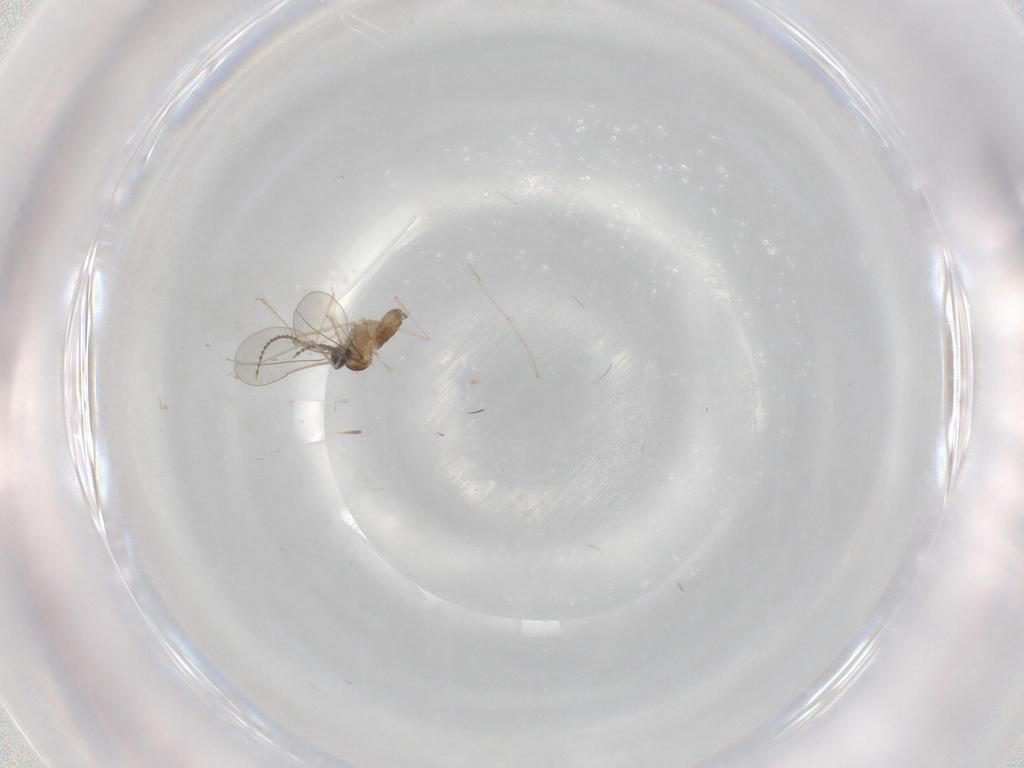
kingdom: Animalia
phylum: Arthropoda
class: Insecta
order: Diptera
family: Cecidomyiidae
